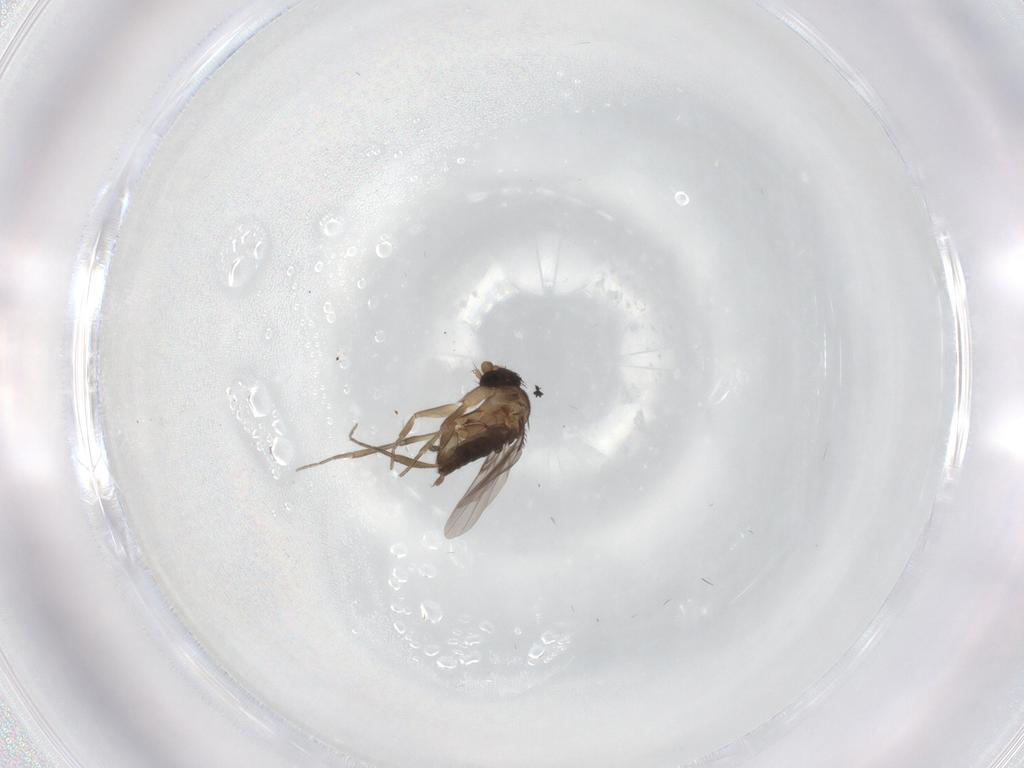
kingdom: Animalia
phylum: Arthropoda
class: Insecta
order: Diptera
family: Phoridae
